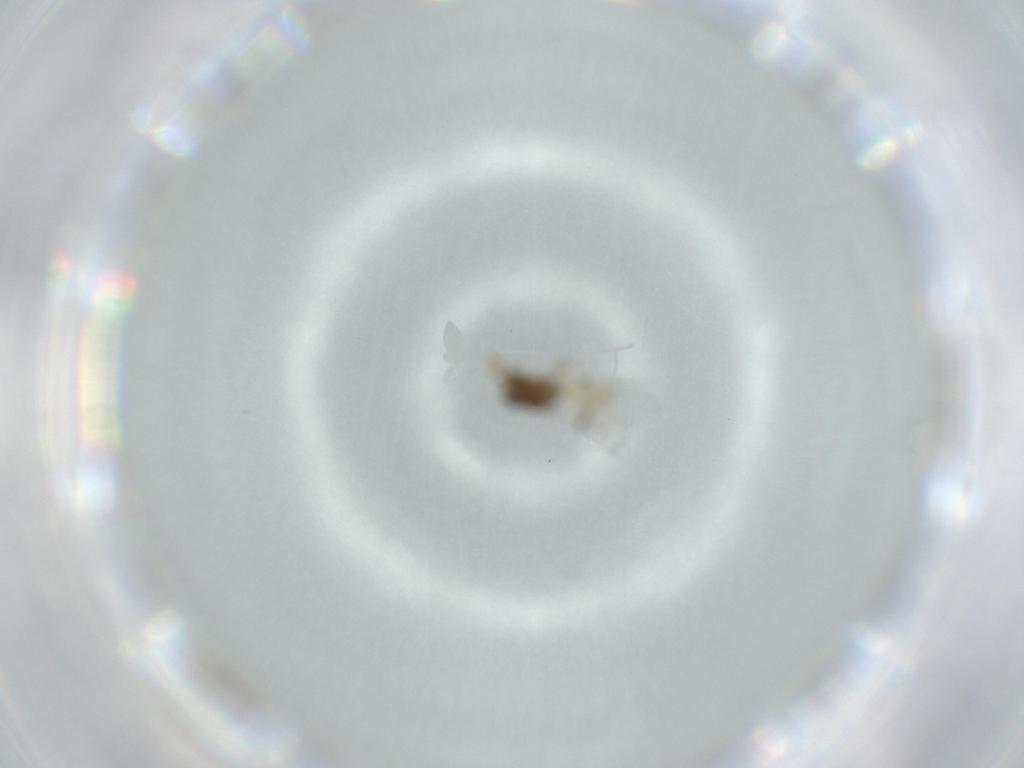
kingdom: Animalia
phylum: Arthropoda
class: Insecta
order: Hymenoptera
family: Scelionidae
